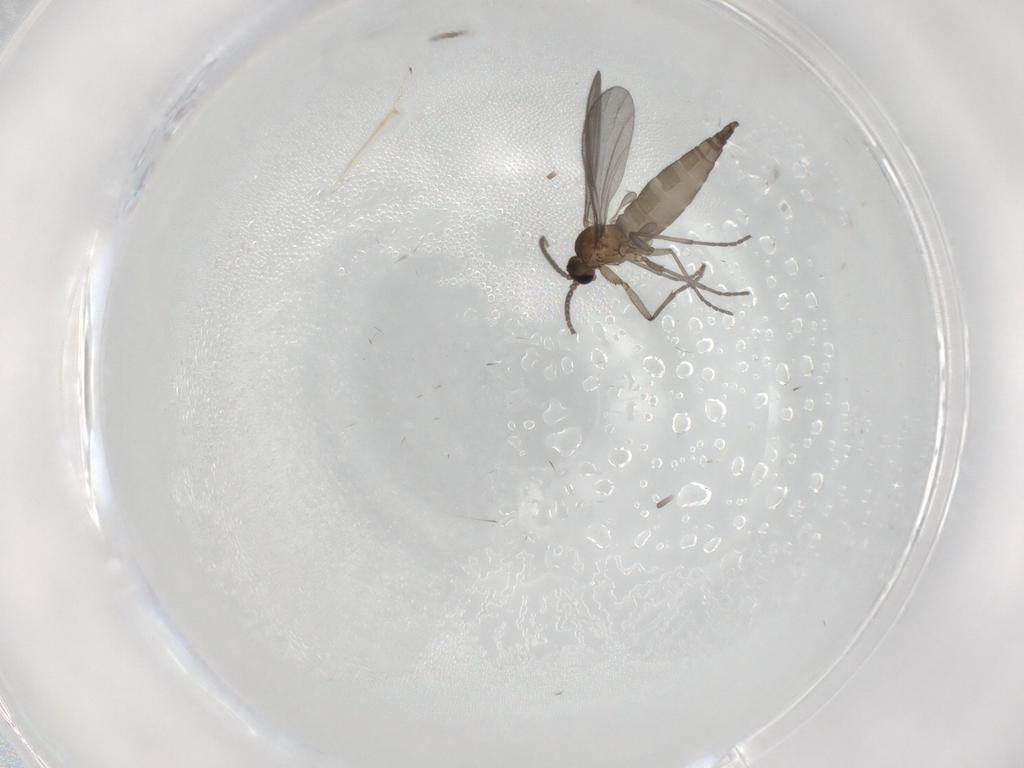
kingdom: Animalia
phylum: Arthropoda
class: Insecta
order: Diptera
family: Sciaridae
